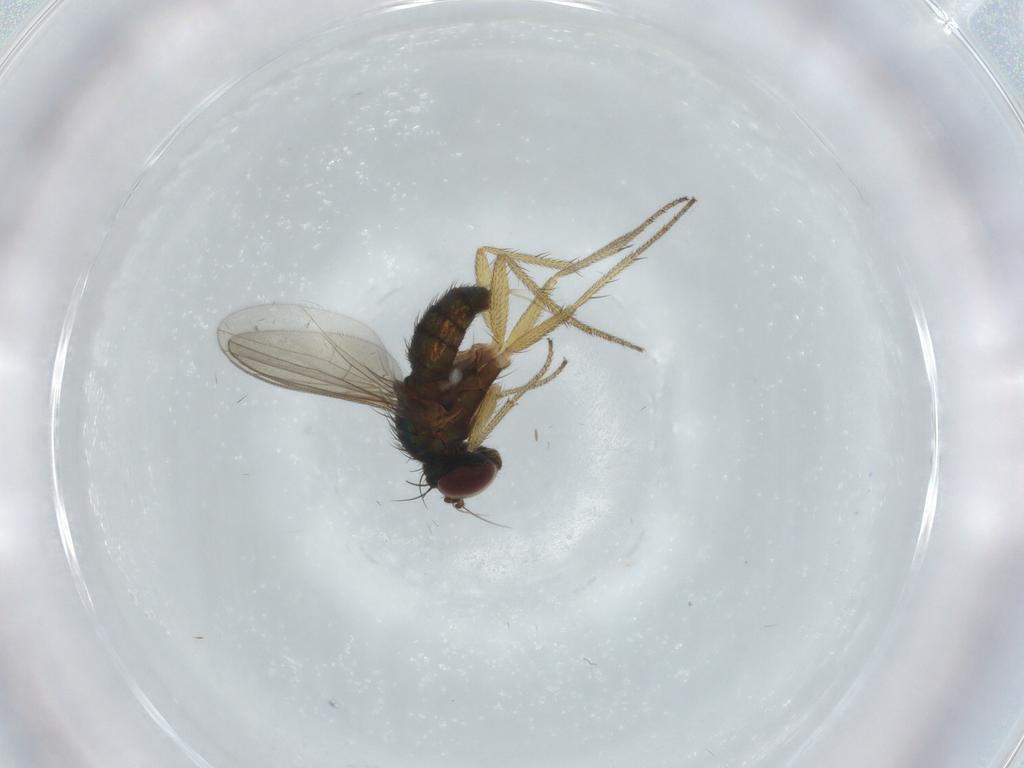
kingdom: Animalia
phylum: Arthropoda
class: Insecta
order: Diptera
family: Dolichopodidae
